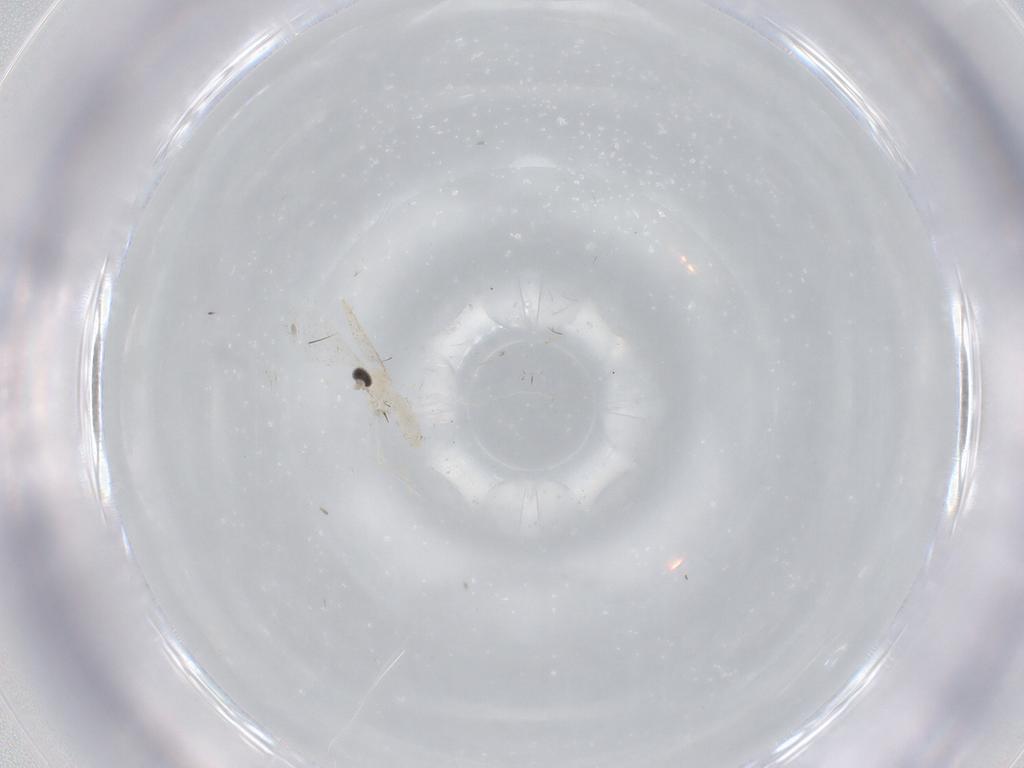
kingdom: Animalia
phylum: Arthropoda
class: Insecta
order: Diptera
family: Cecidomyiidae
